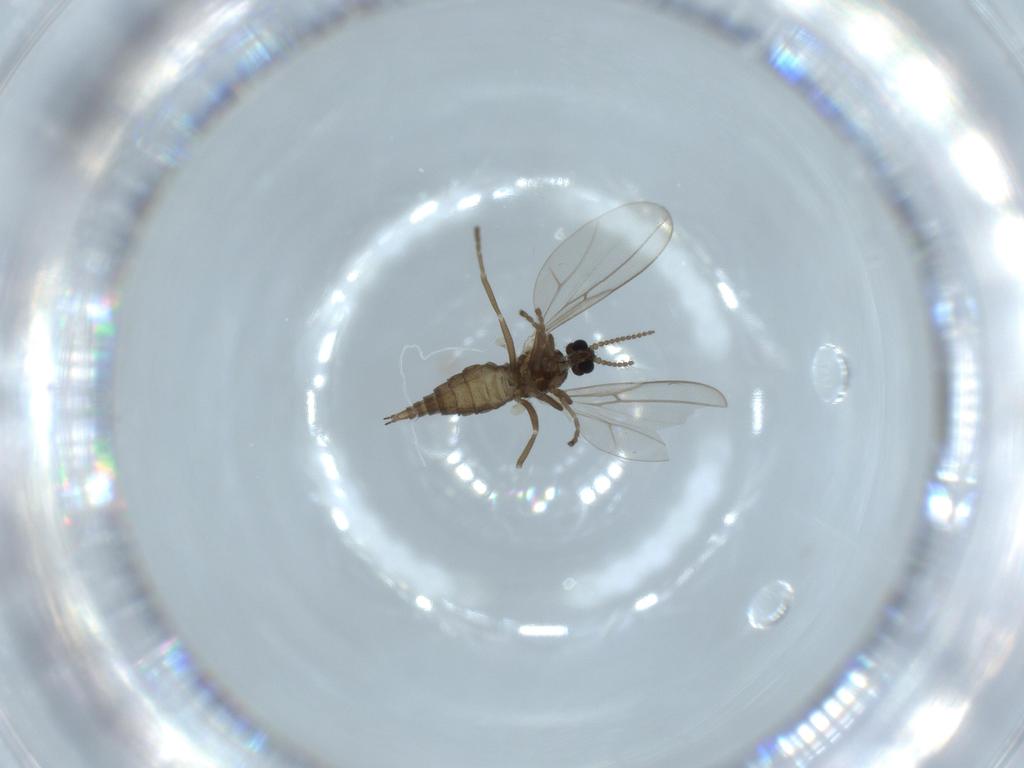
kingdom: Animalia
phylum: Arthropoda
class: Insecta
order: Diptera
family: Cecidomyiidae
